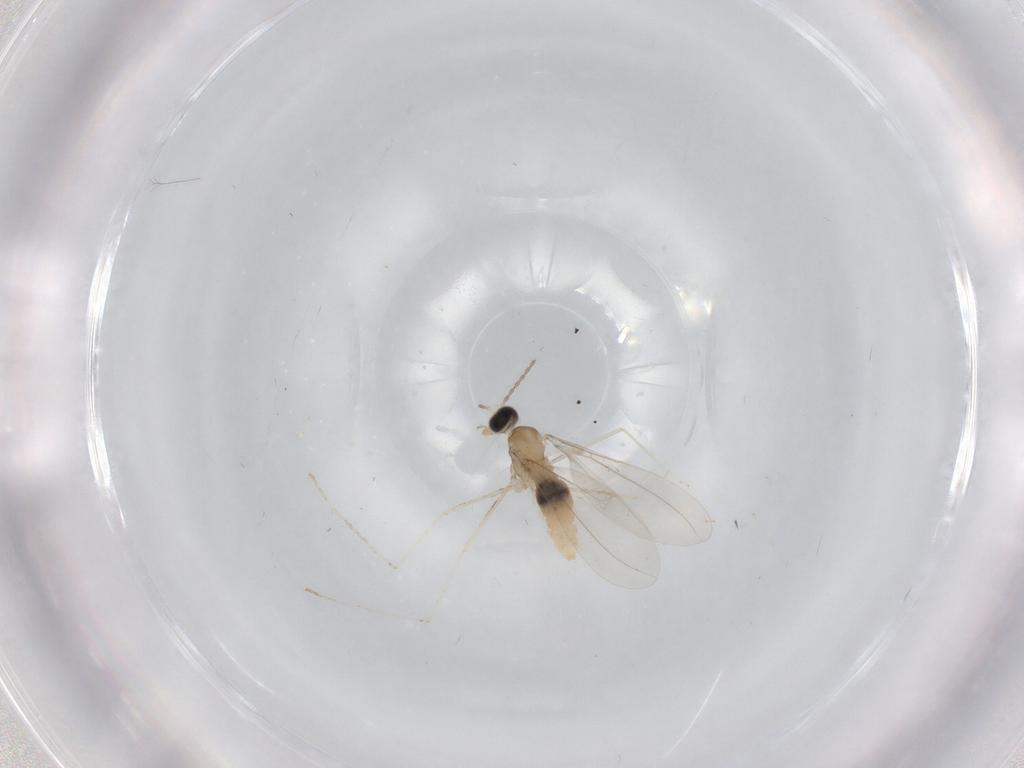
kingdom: Animalia
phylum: Arthropoda
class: Insecta
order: Diptera
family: Cecidomyiidae
